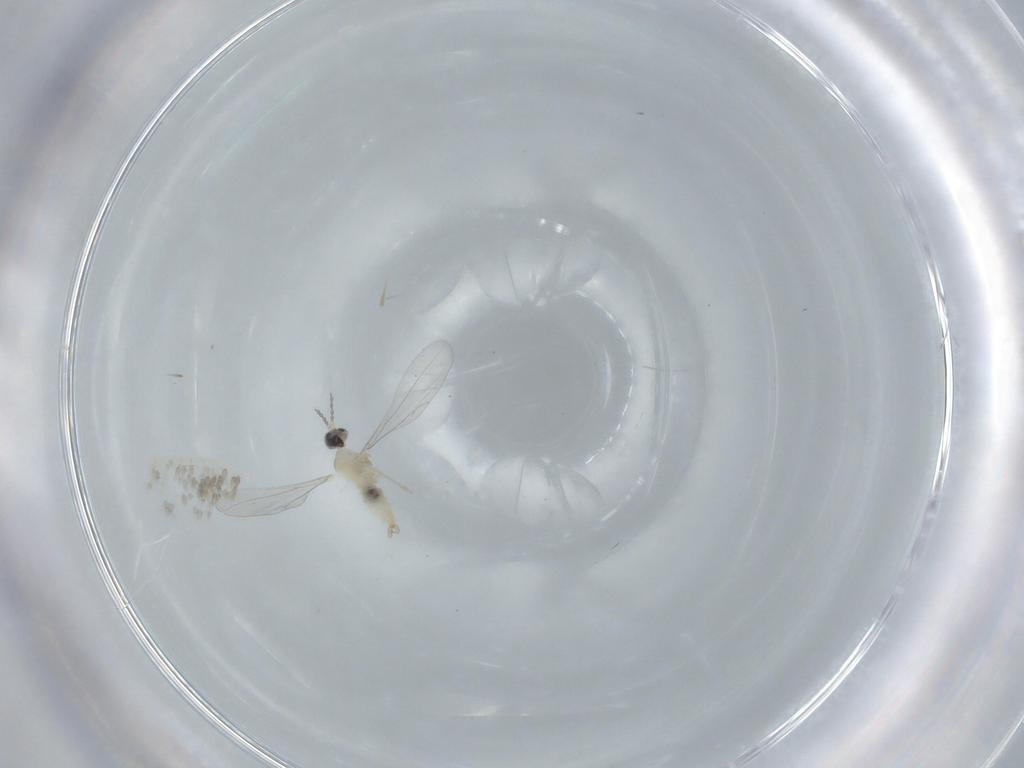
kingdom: Animalia
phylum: Arthropoda
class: Insecta
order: Diptera
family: Cecidomyiidae
